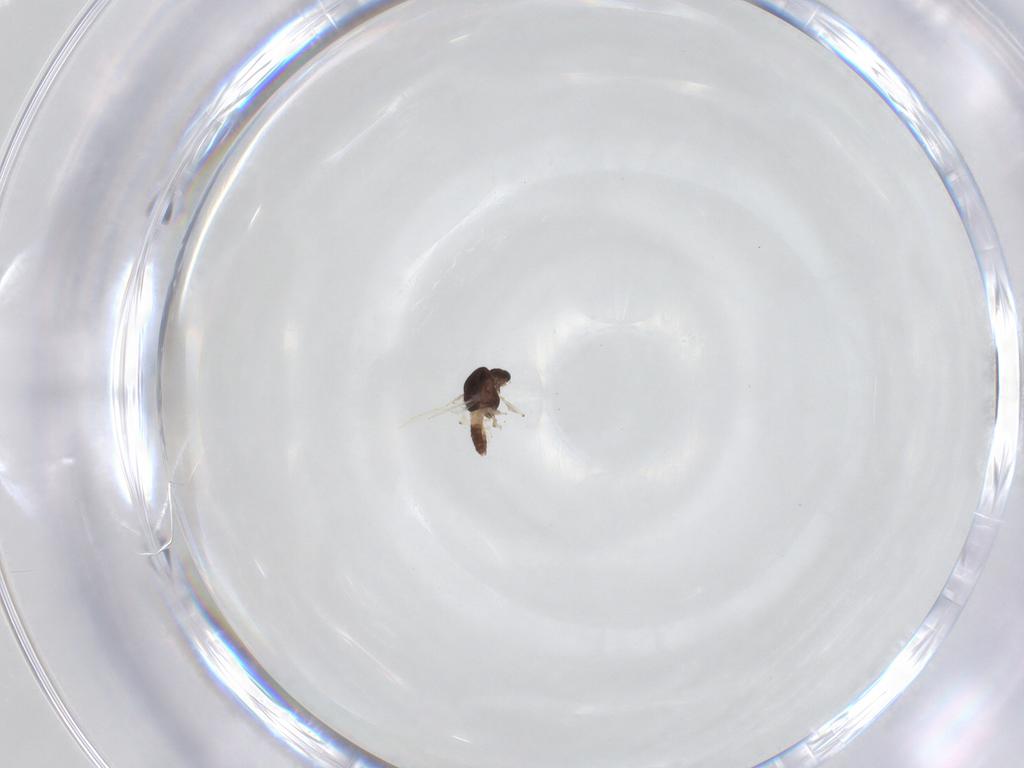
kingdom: Animalia
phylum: Arthropoda
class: Insecta
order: Diptera
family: Chironomidae
